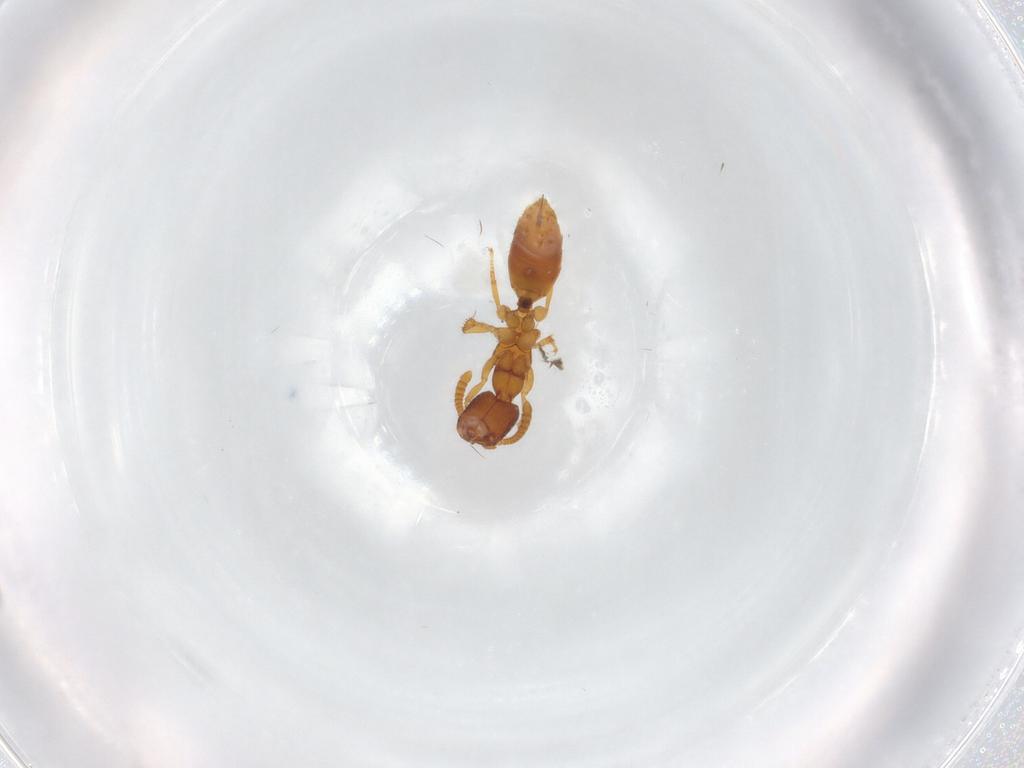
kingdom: Animalia
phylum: Arthropoda
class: Insecta
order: Hymenoptera
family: Bethylidae
